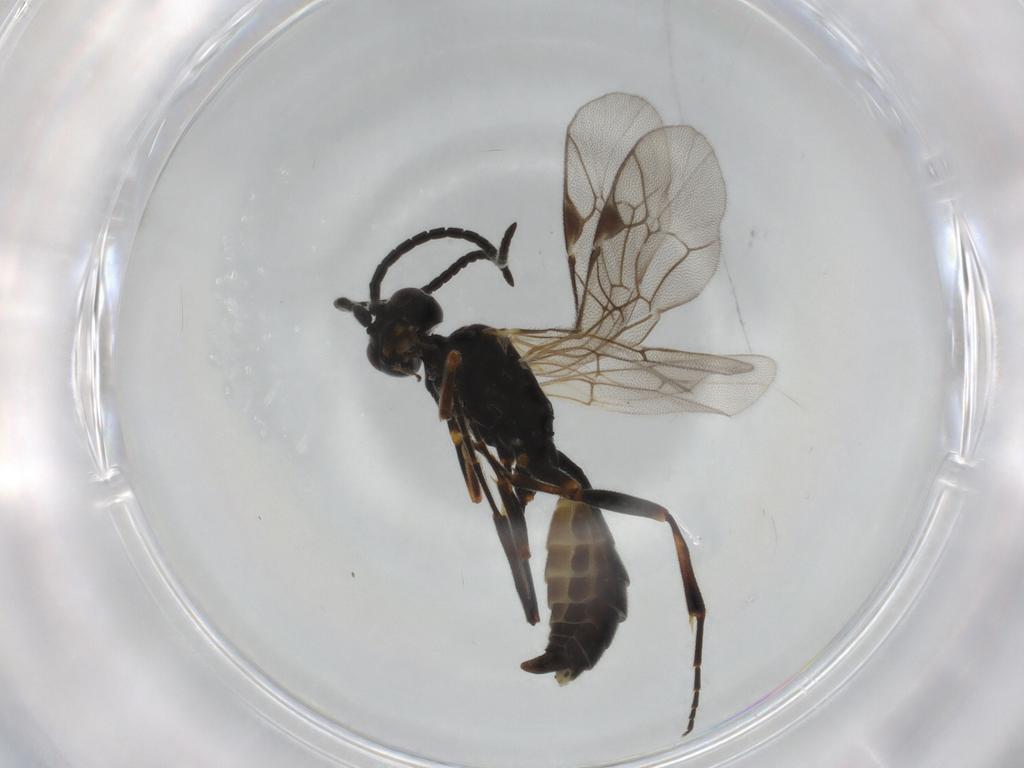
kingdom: Animalia
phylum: Arthropoda
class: Insecta
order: Hymenoptera
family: Ichneumonidae
